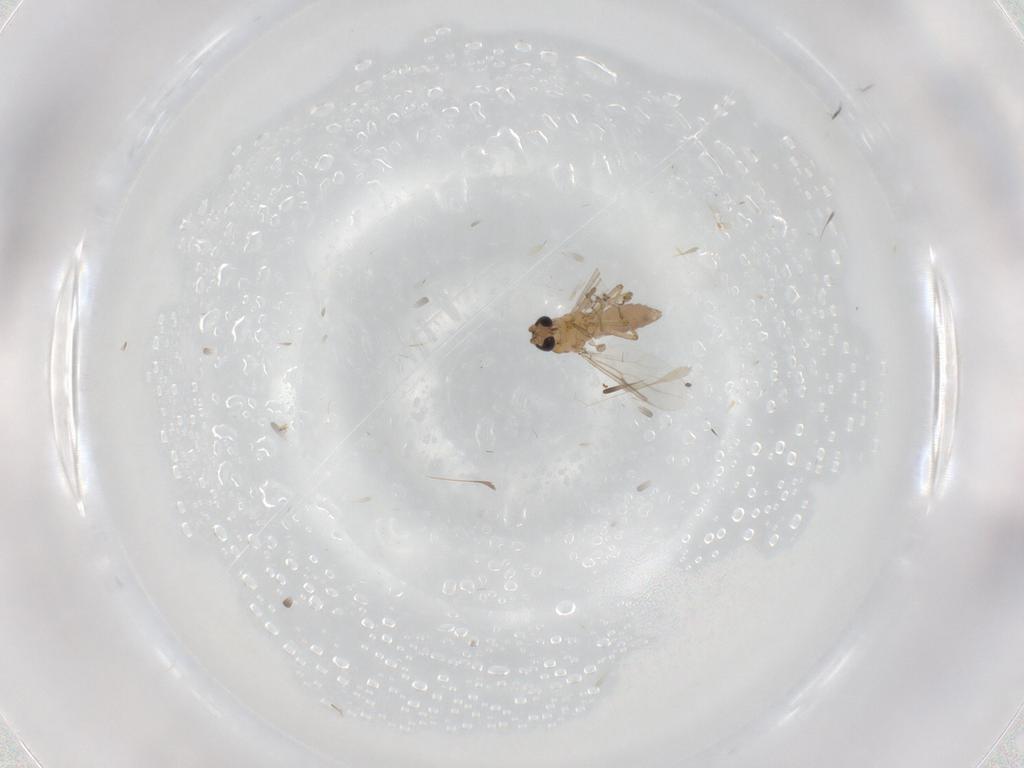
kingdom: Animalia
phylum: Arthropoda
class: Insecta
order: Diptera
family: Ceratopogonidae
